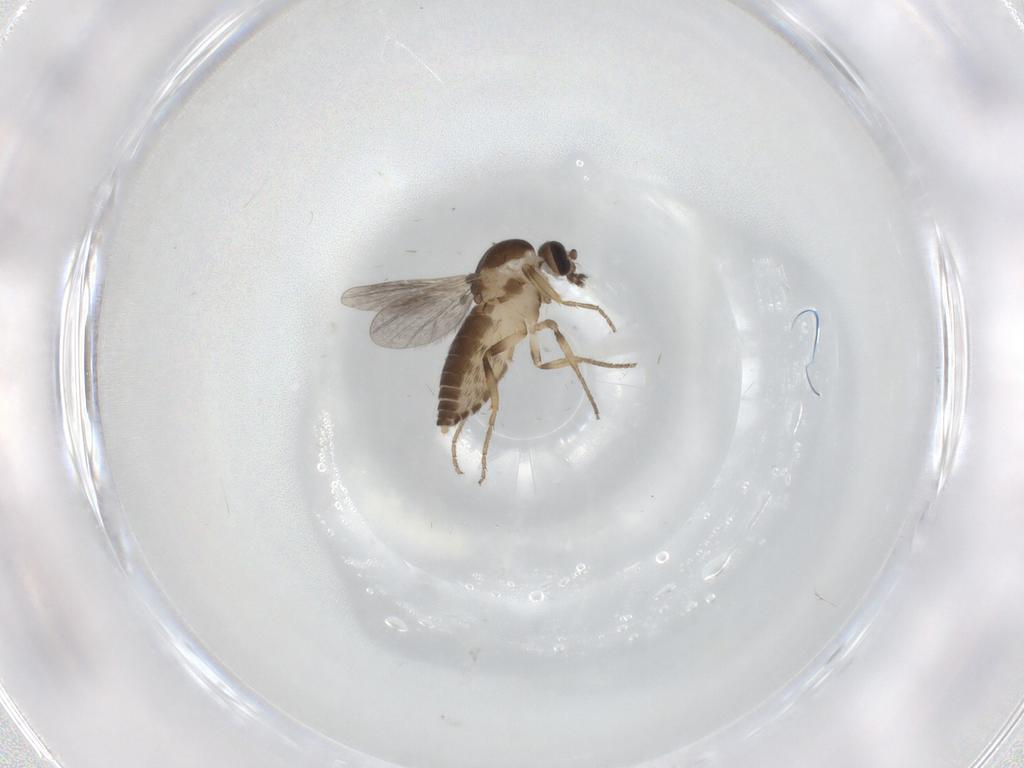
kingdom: Animalia
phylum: Arthropoda
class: Insecta
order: Diptera
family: Ceratopogonidae
